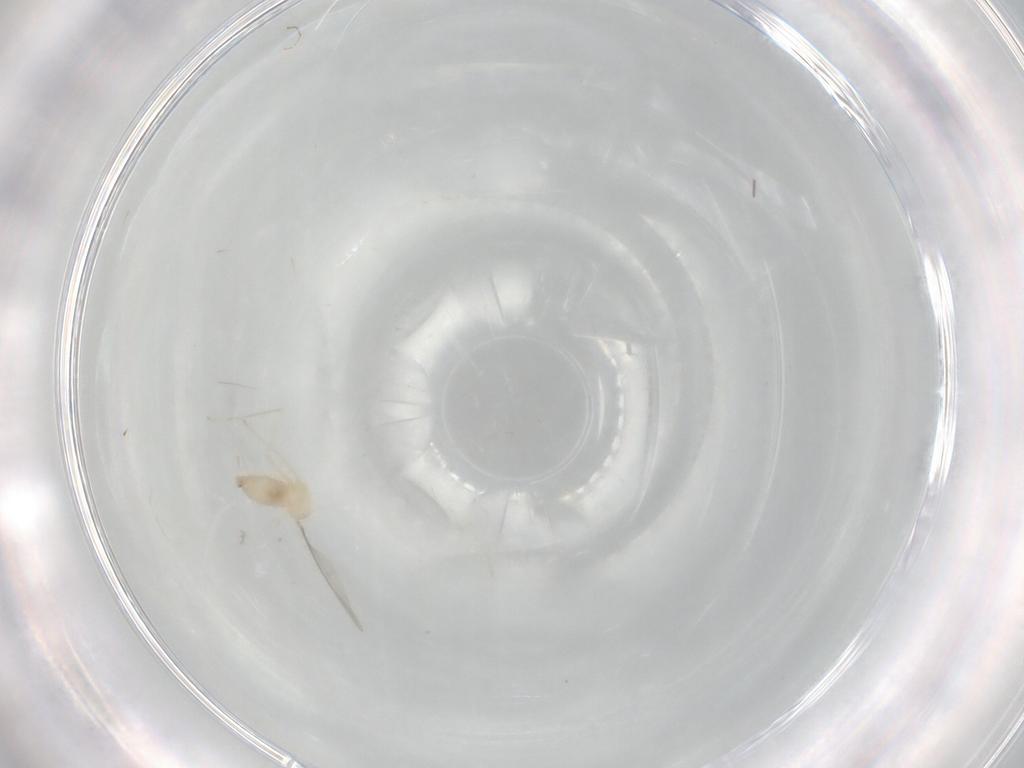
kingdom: Animalia
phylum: Arthropoda
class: Insecta
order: Diptera
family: Cecidomyiidae
